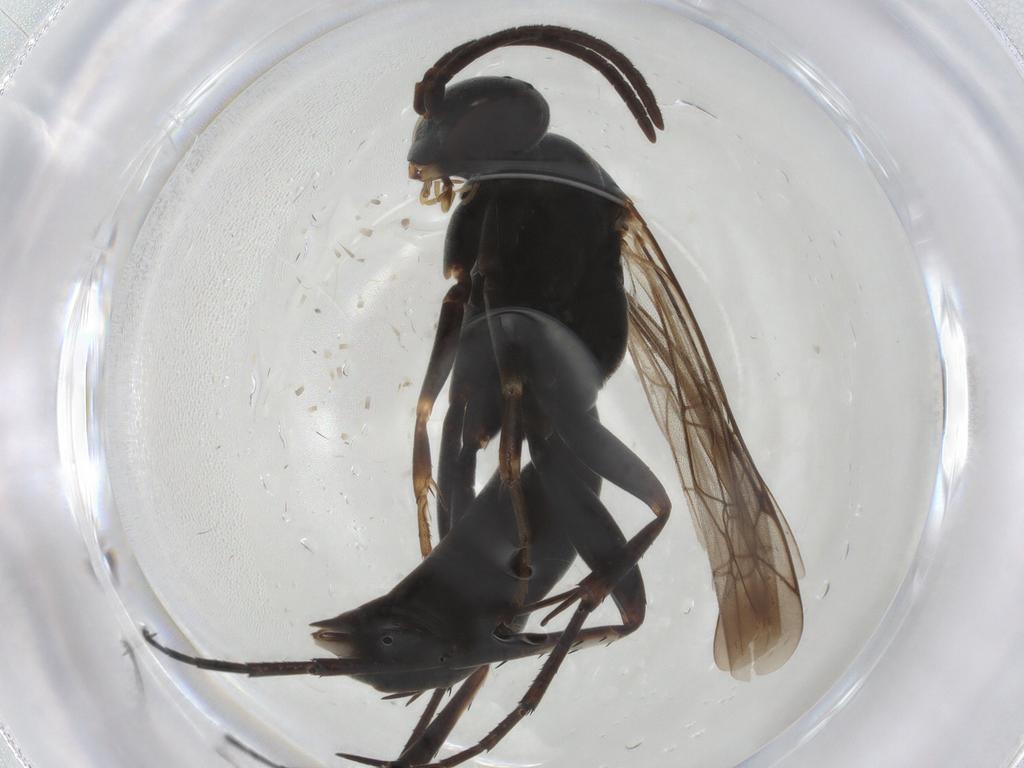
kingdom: Animalia
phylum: Arthropoda
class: Insecta
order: Hymenoptera
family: Pompilidae
